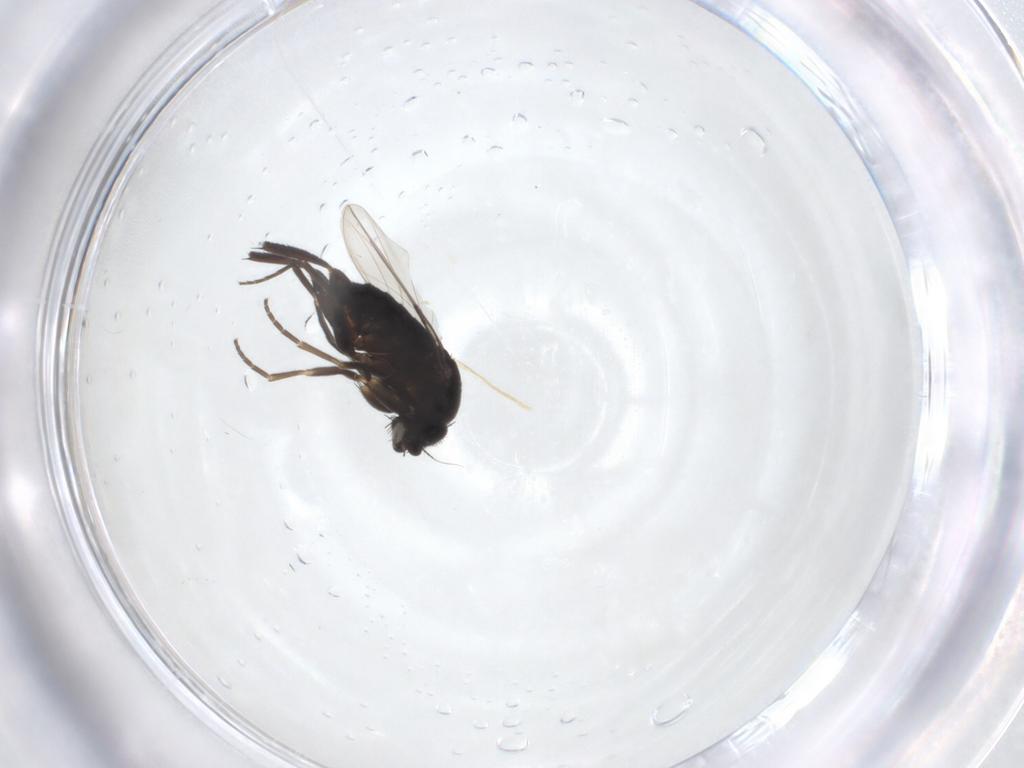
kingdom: Animalia
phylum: Arthropoda
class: Insecta
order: Diptera
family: Phoridae
